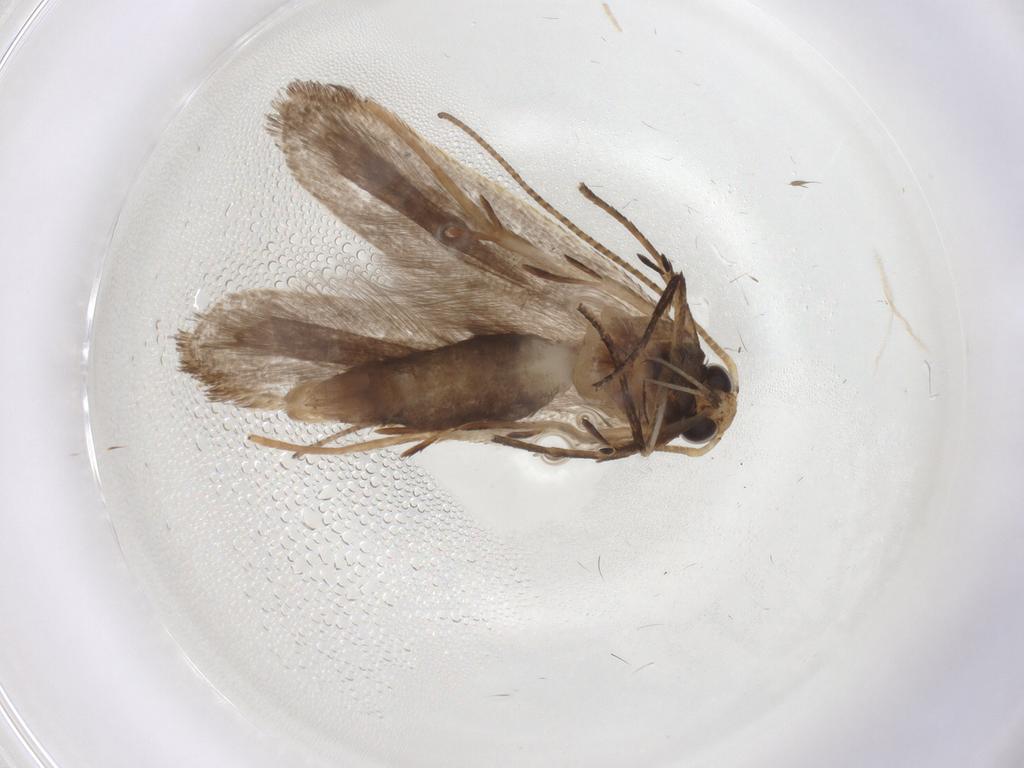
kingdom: Animalia
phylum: Arthropoda
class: Insecta
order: Lepidoptera
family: Gelechiidae
